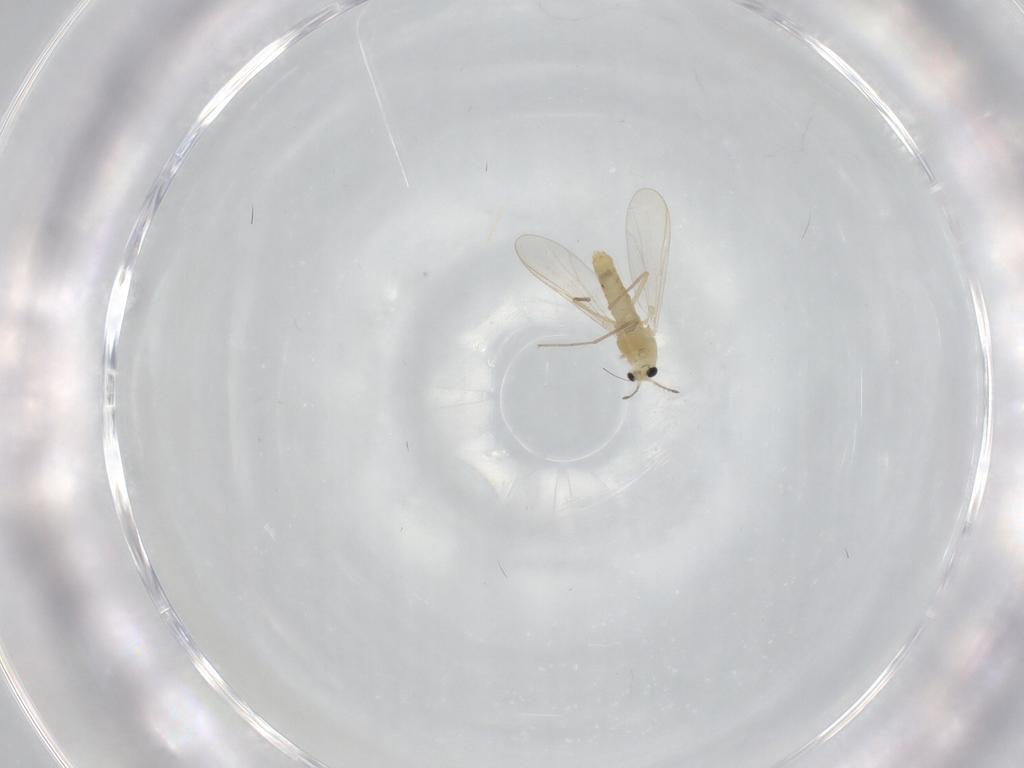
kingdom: Animalia
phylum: Arthropoda
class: Insecta
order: Diptera
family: Chironomidae
